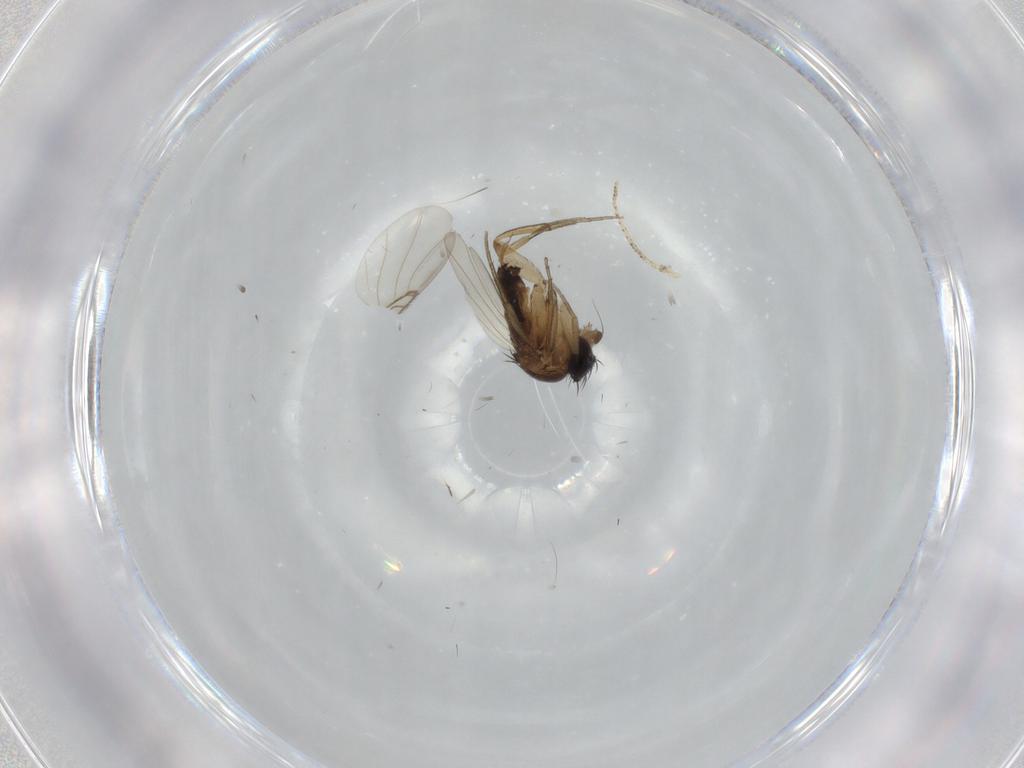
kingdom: Animalia
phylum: Arthropoda
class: Insecta
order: Diptera
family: Phoridae
